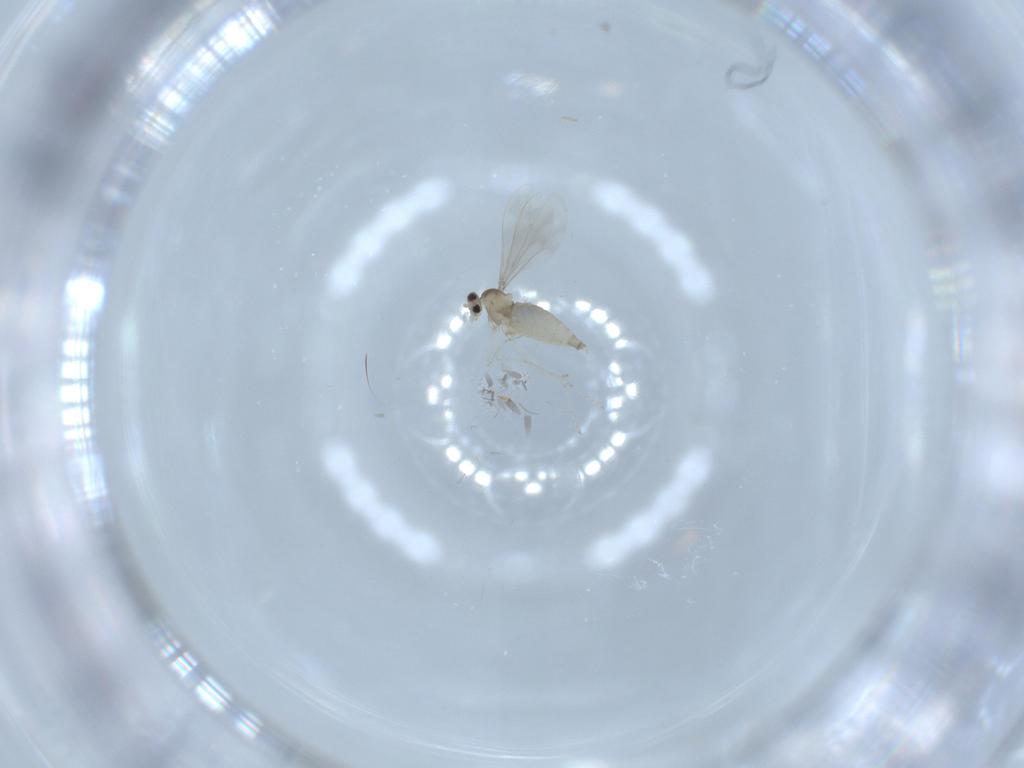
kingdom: Animalia
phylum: Arthropoda
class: Insecta
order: Diptera
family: Cecidomyiidae
